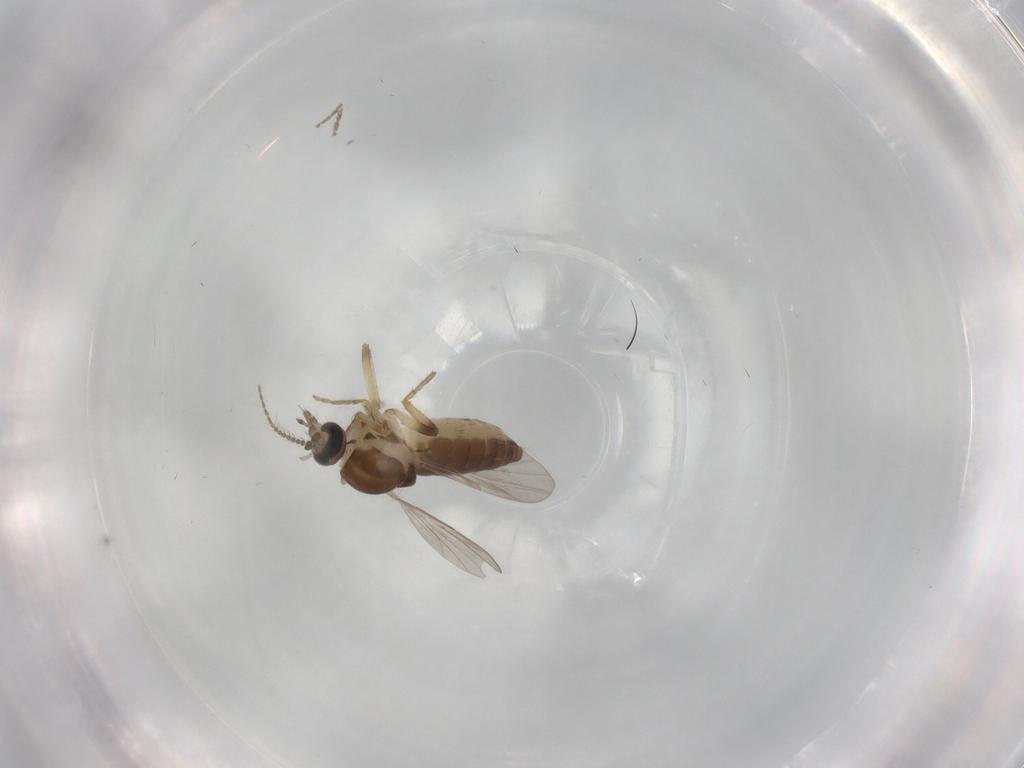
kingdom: Animalia
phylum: Arthropoda
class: Insecta
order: Diptera
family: Ceratopogonidae
